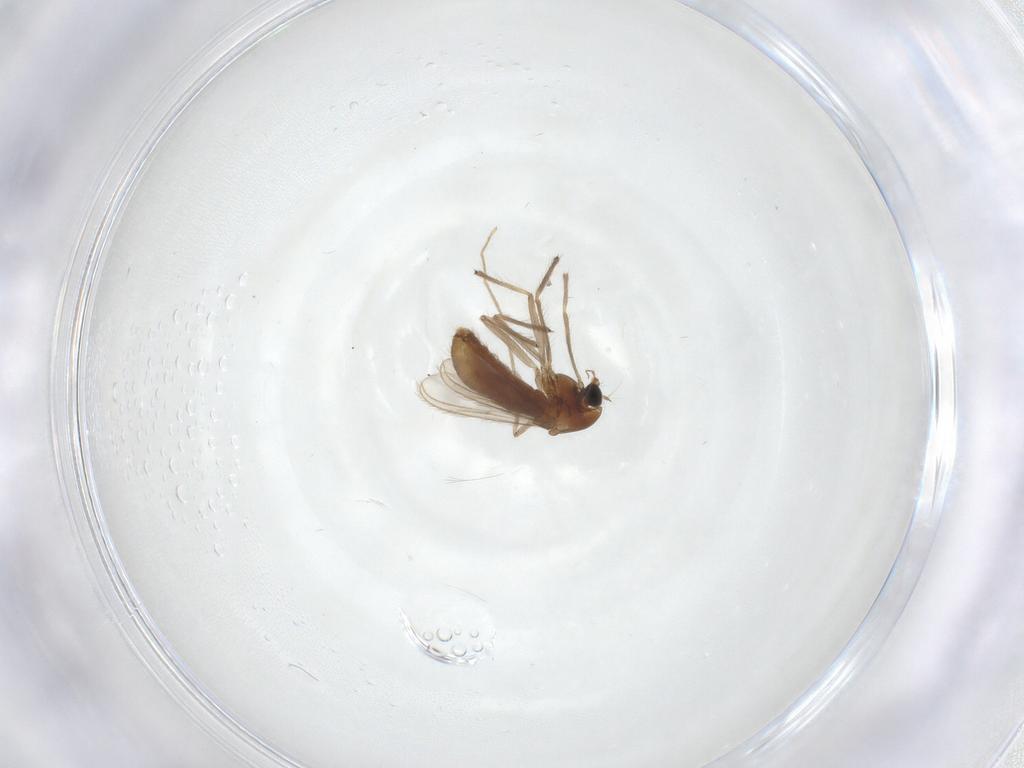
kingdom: Animalia
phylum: Arthropoda
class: Insecta
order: Diptera
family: Chironomidae
